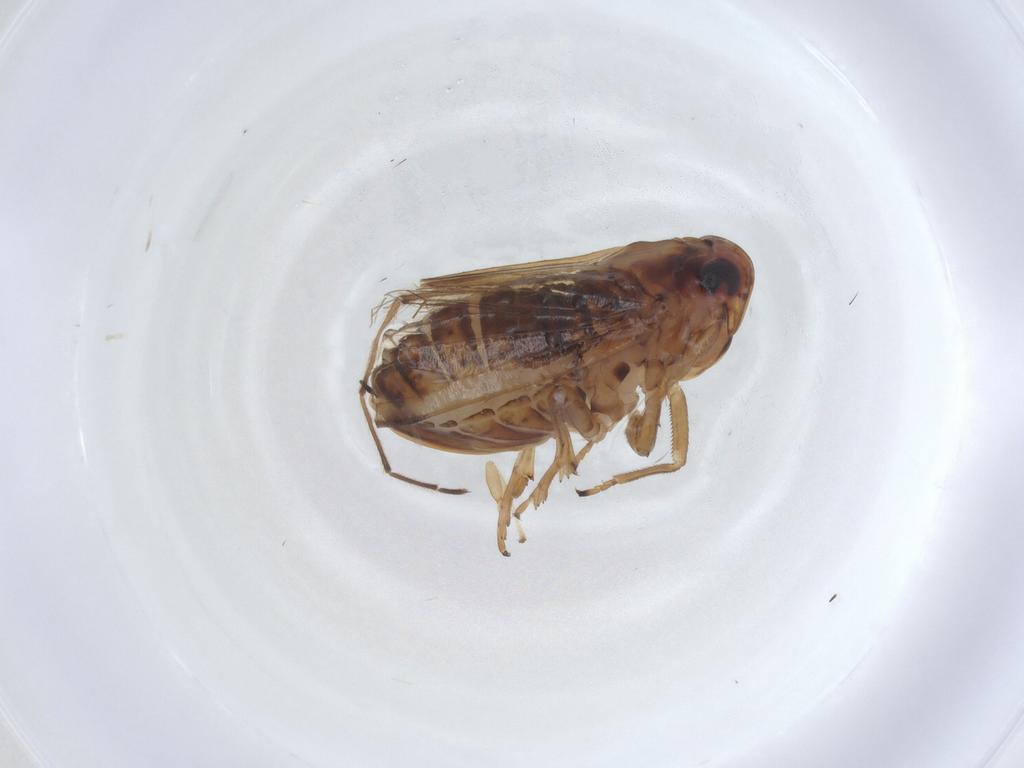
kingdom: Animalia
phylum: Arthropoda
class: Insecta
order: Hemiptera
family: Delphacidae
